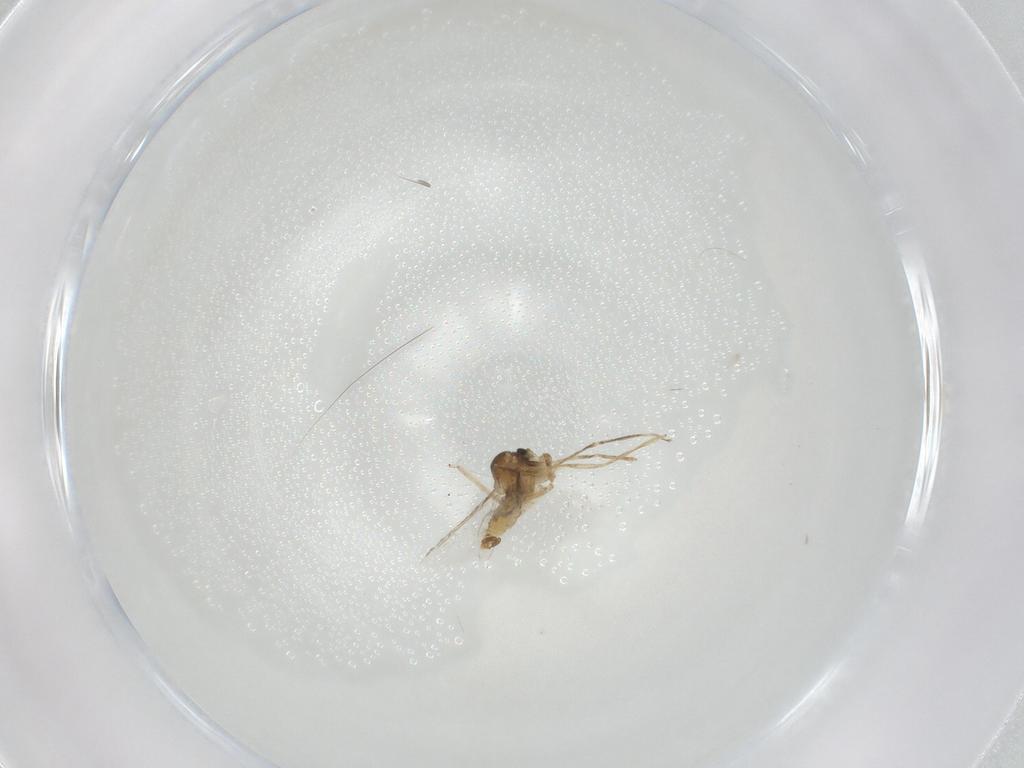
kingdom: Animalia
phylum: Arthropoda
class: Insecta
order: Diptera
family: Cecidomyiidae
